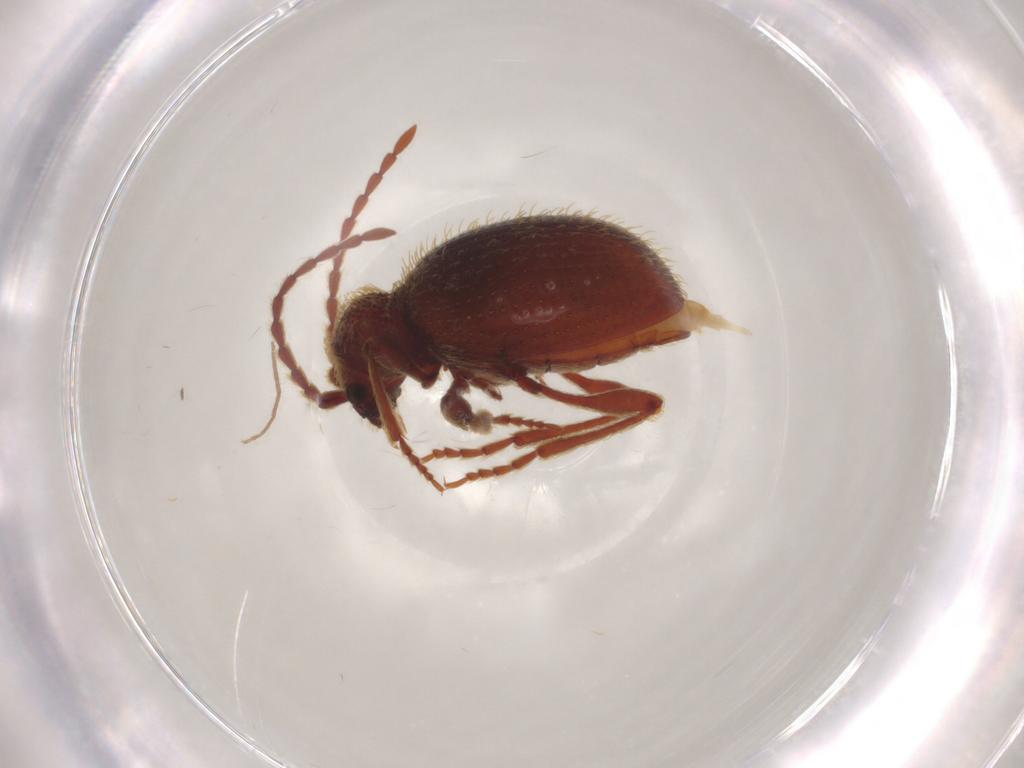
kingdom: Animalia
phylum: Arthropoda
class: Insecta
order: Coleoptera
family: Ptinidae
